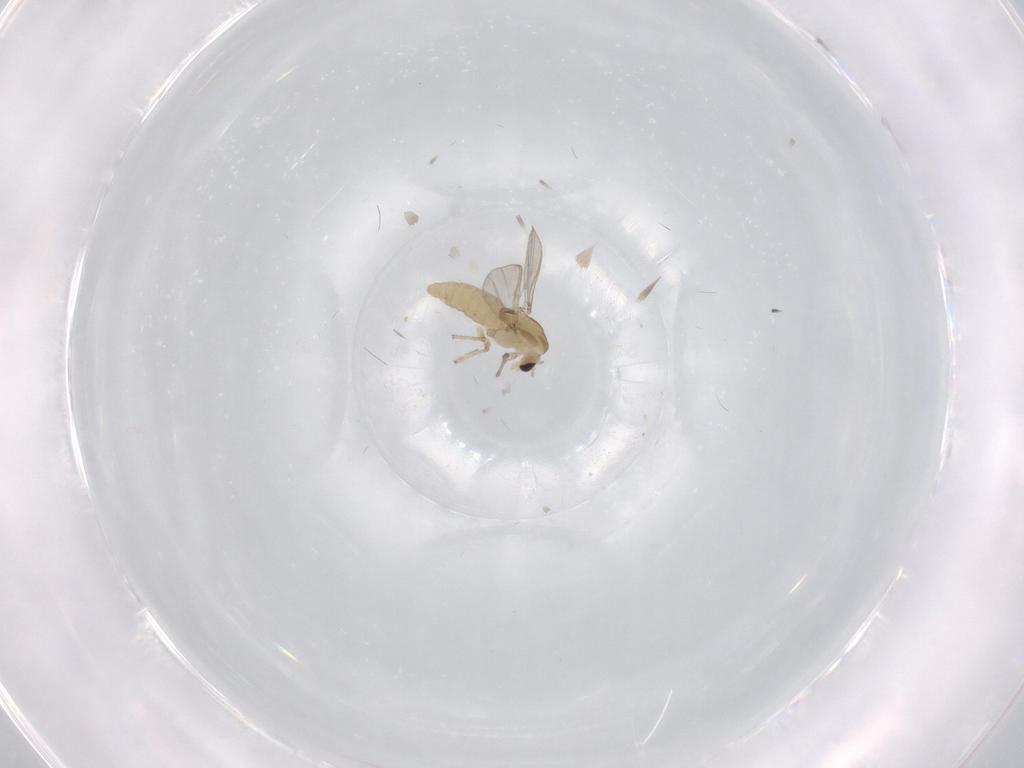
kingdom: Animalia
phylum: Arthropoda
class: Insecta
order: Diptera
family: Chironomidae
